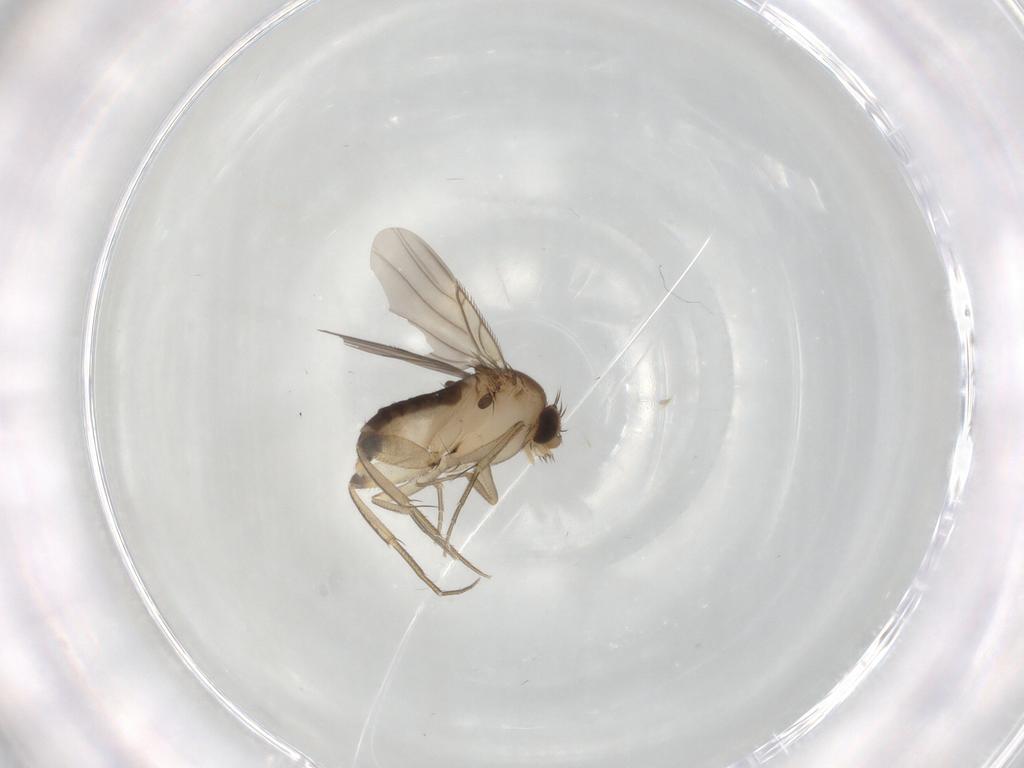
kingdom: Animalia
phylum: Arthropoda
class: Insecta
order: Diptera
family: Phoridae
